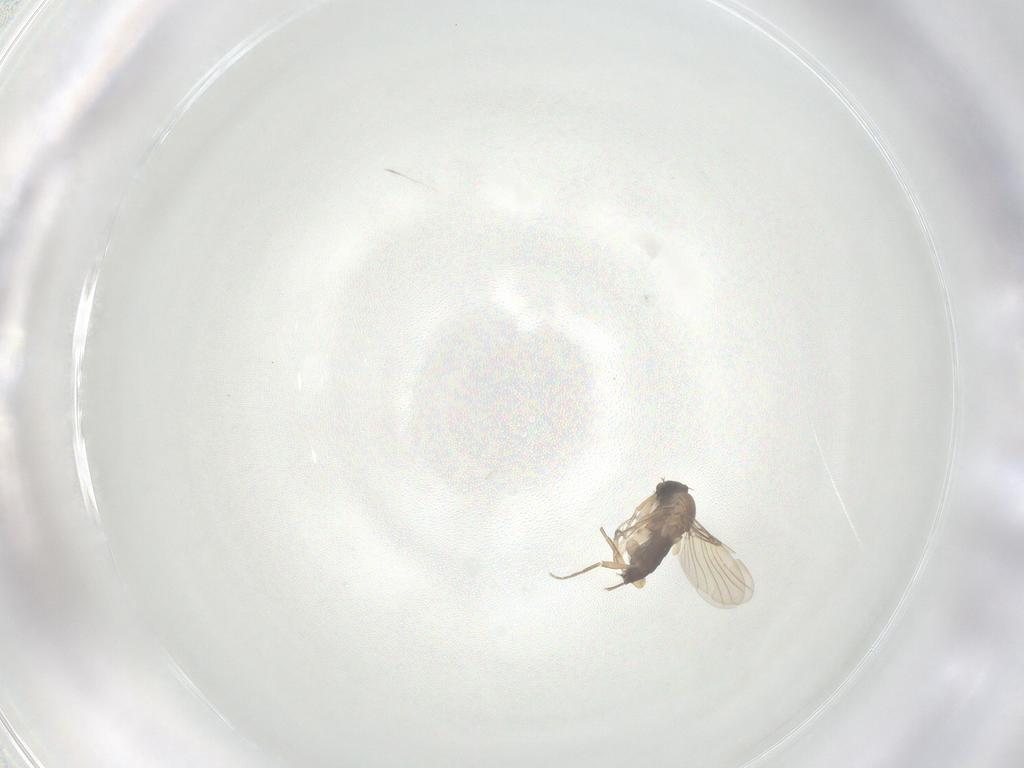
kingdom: Animalia
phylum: Arthropoda
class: Insecta
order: Diptera
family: Phoridae
